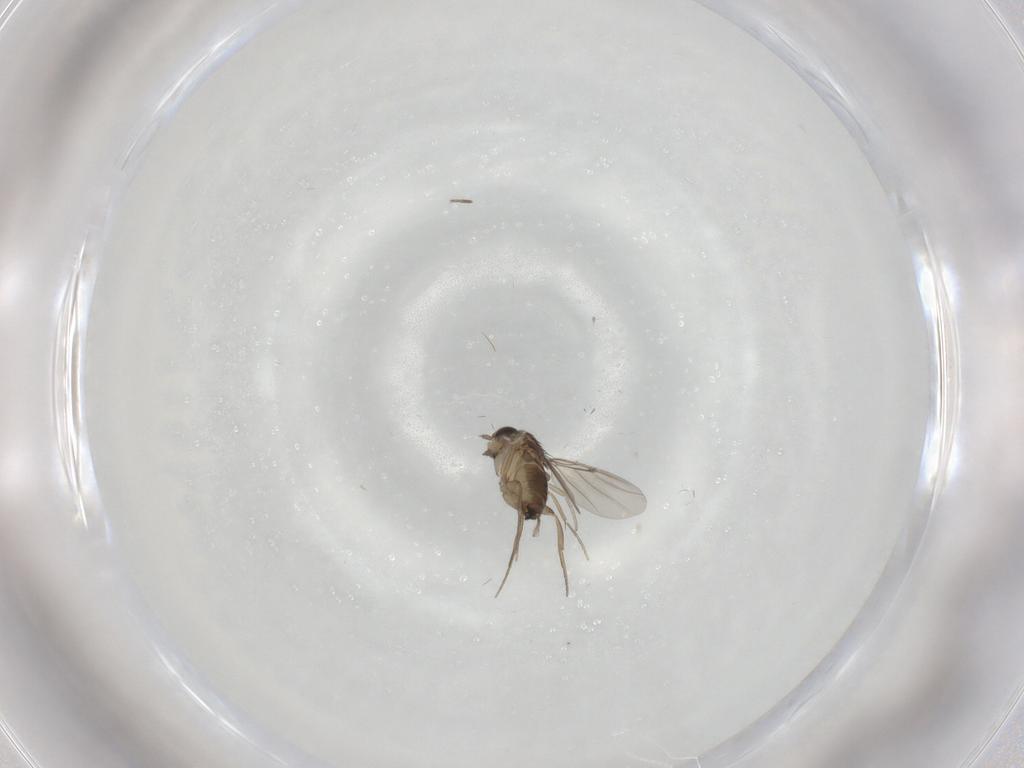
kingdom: Animalia
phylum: Arthropoda
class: Insecta
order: Diptera
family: Phoridae
